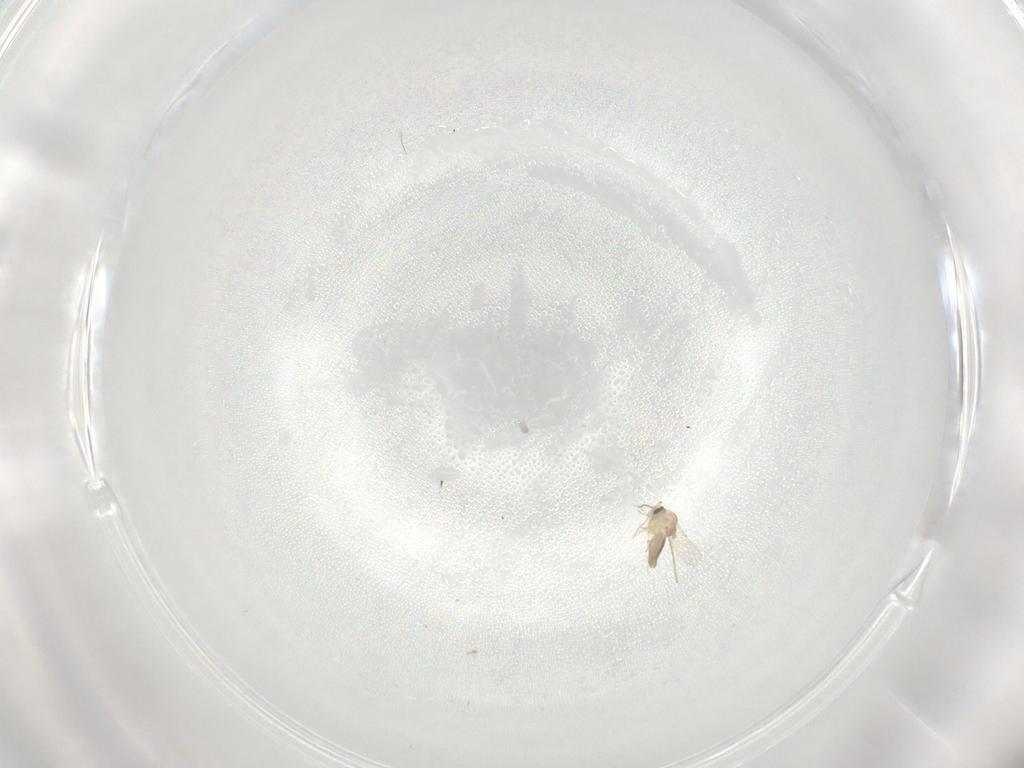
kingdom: Animalia
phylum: Arthropoda
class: Insecta
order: Diptera
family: Ceratopogonidae
